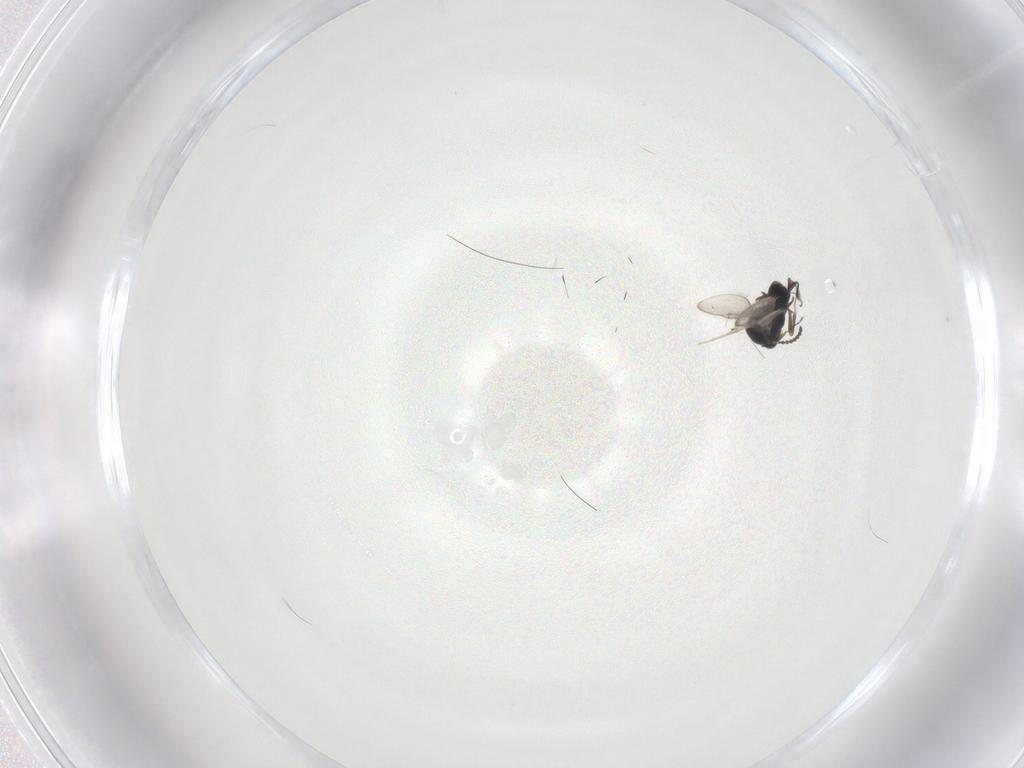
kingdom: Animalia
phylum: Arthropoda
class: Insecta
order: Hymenoptera
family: Scelionidae
